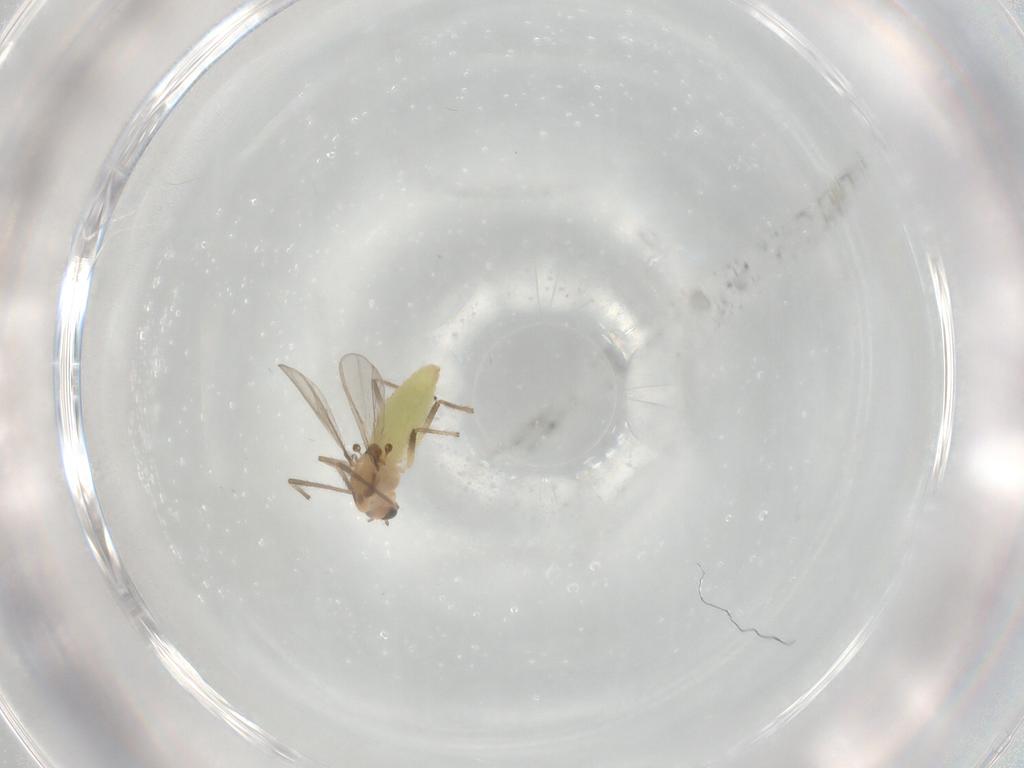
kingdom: Animalia
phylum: Arthropoda
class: Insecta
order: Diptera
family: Chironomidae
